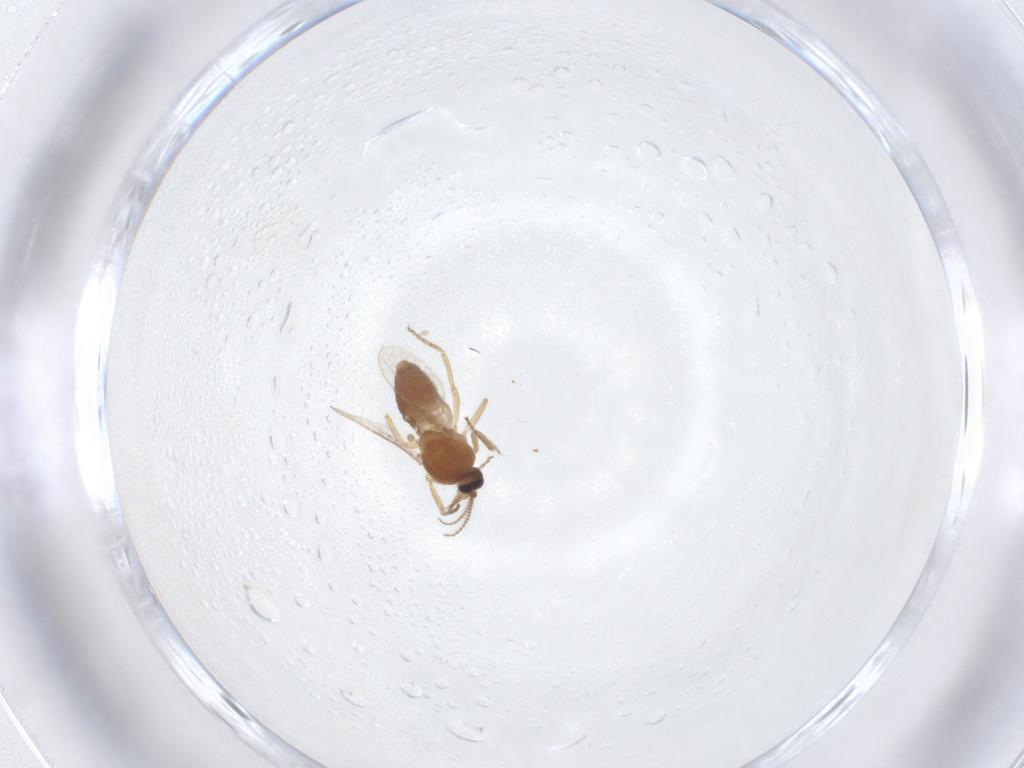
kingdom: Animalia
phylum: Arthropoda
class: Insecta
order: Diptera
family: Ceratopogonidae
